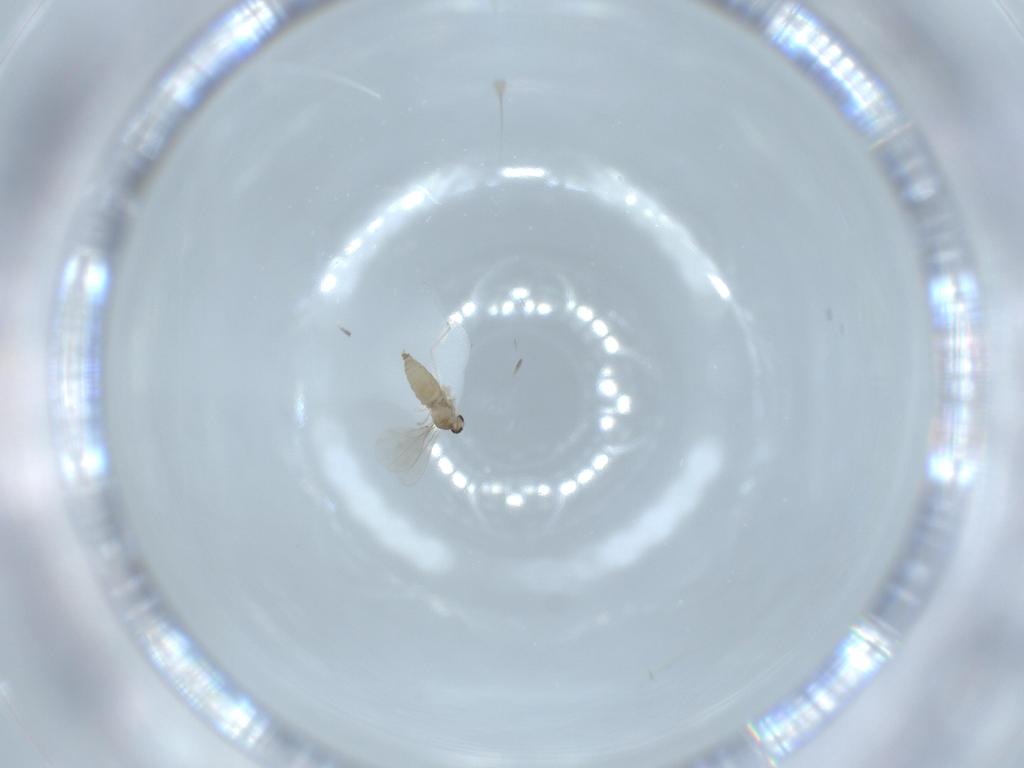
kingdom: Animalia
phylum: Arthropoda
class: Insecta
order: Diptera
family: Cecidomyiidae
